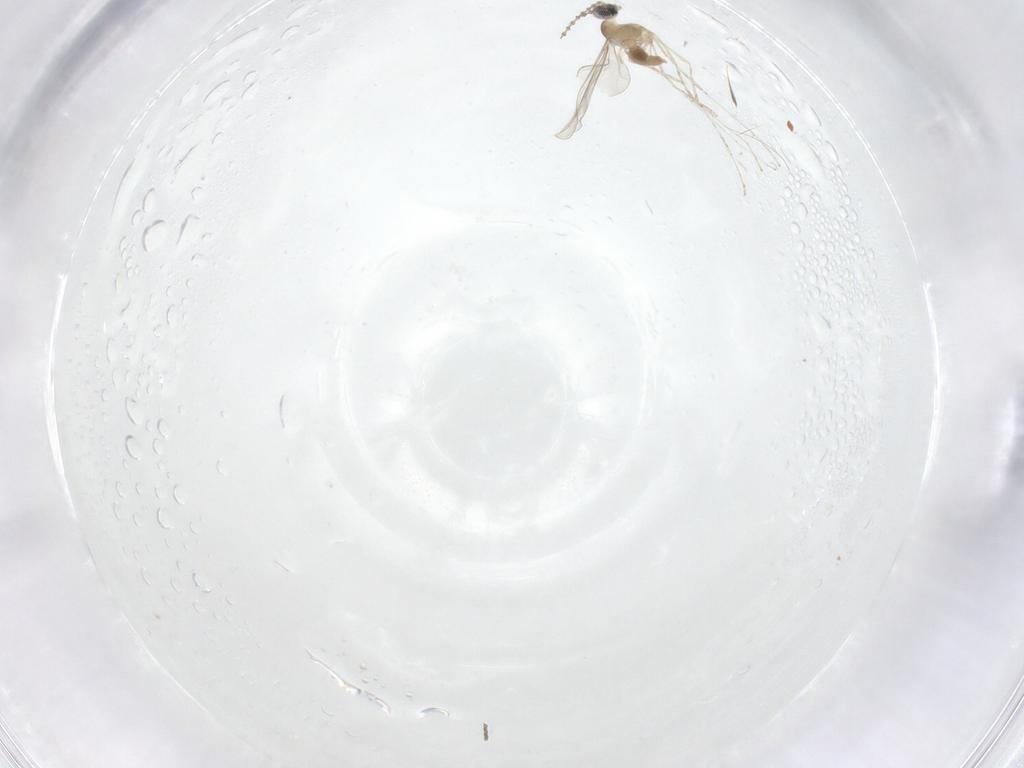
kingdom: Animalia
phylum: Arthropoda
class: Insecta
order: Diptera
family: Cecidomyiidae
